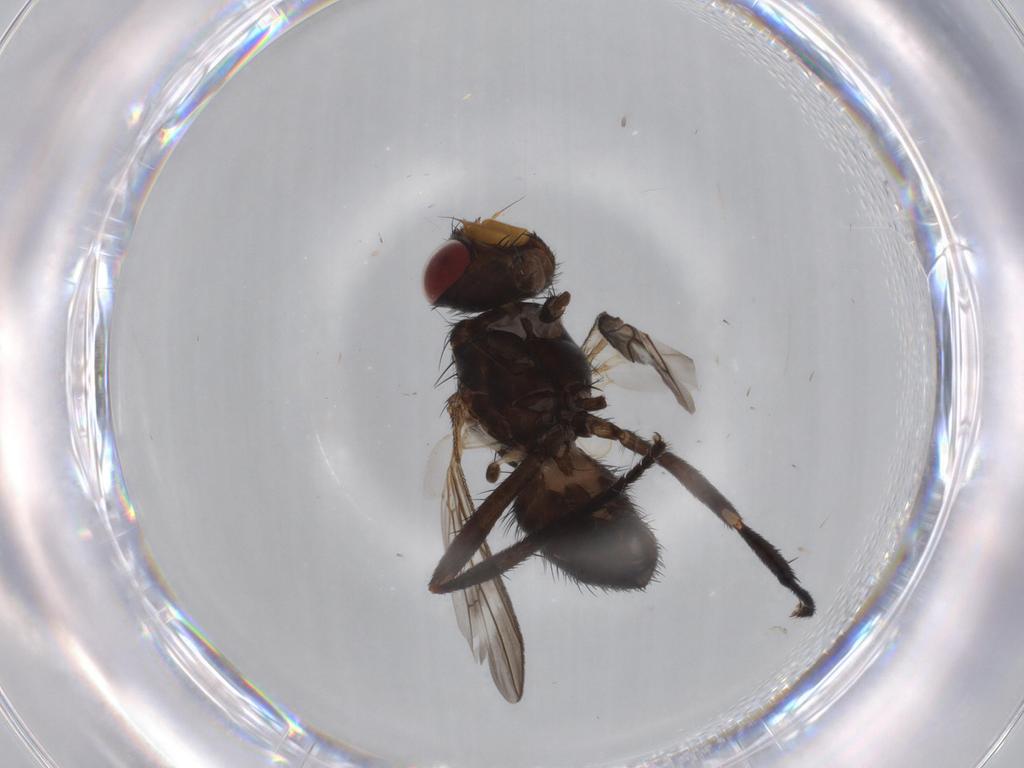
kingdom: Animalia
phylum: Arthropoda
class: Insecta
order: Diptera
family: Calliphoridae
